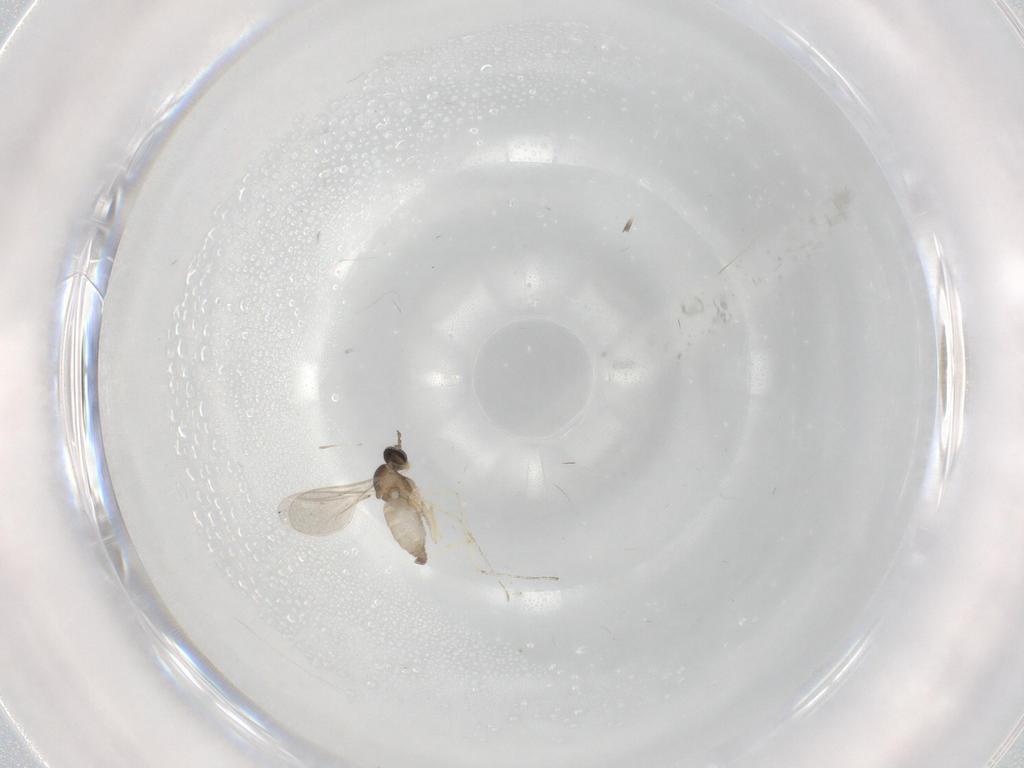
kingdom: Animalia
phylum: Arthropoda
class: Insecta
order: Diptera
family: Cecidomyiidae
